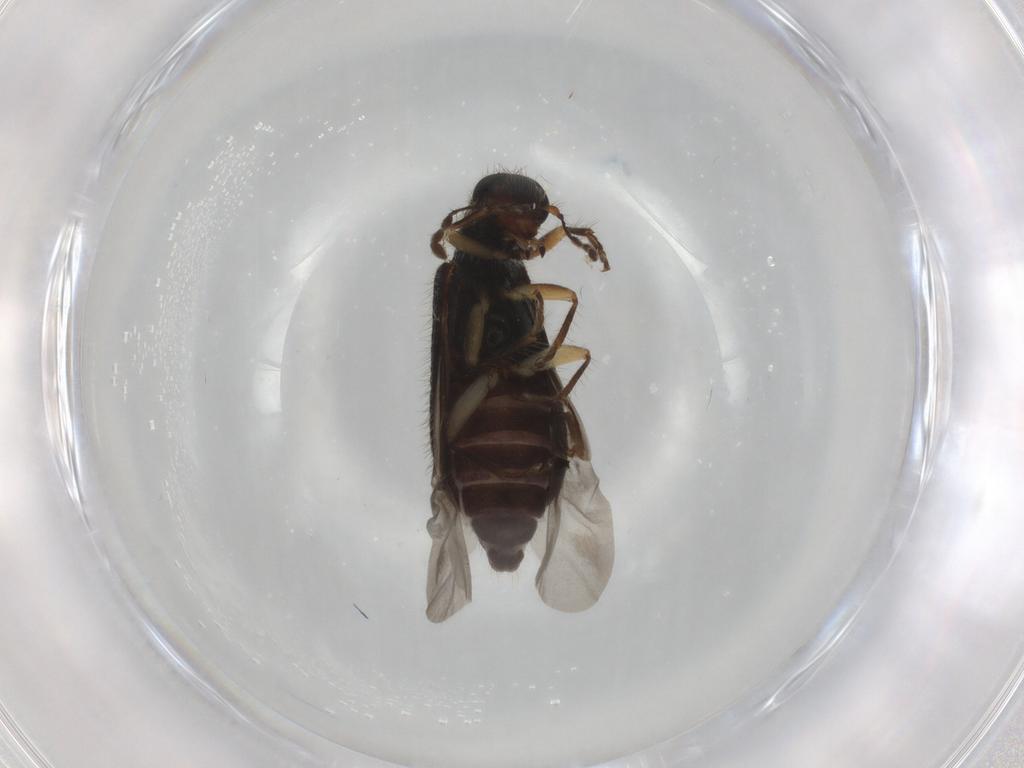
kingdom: Animalia
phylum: Arthropoda
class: Insecta
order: Coleoptera
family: Cleridae
